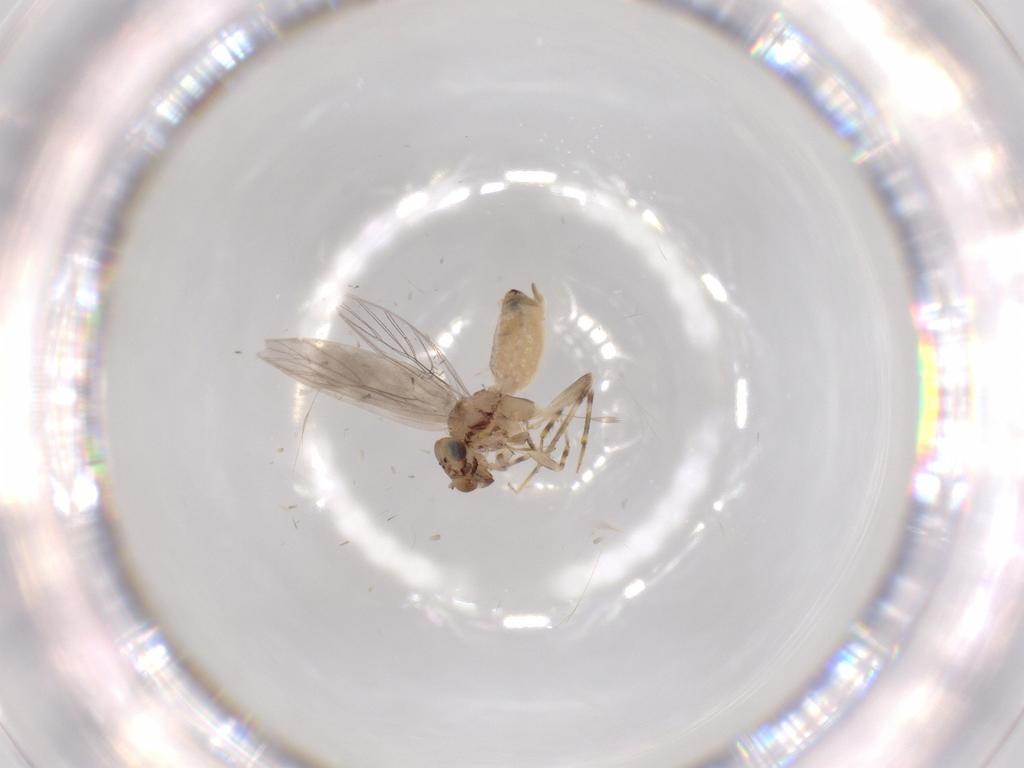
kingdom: Animalia
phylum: Arthropoda
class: Insecta
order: Psocodea
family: Lepidopsocidae
